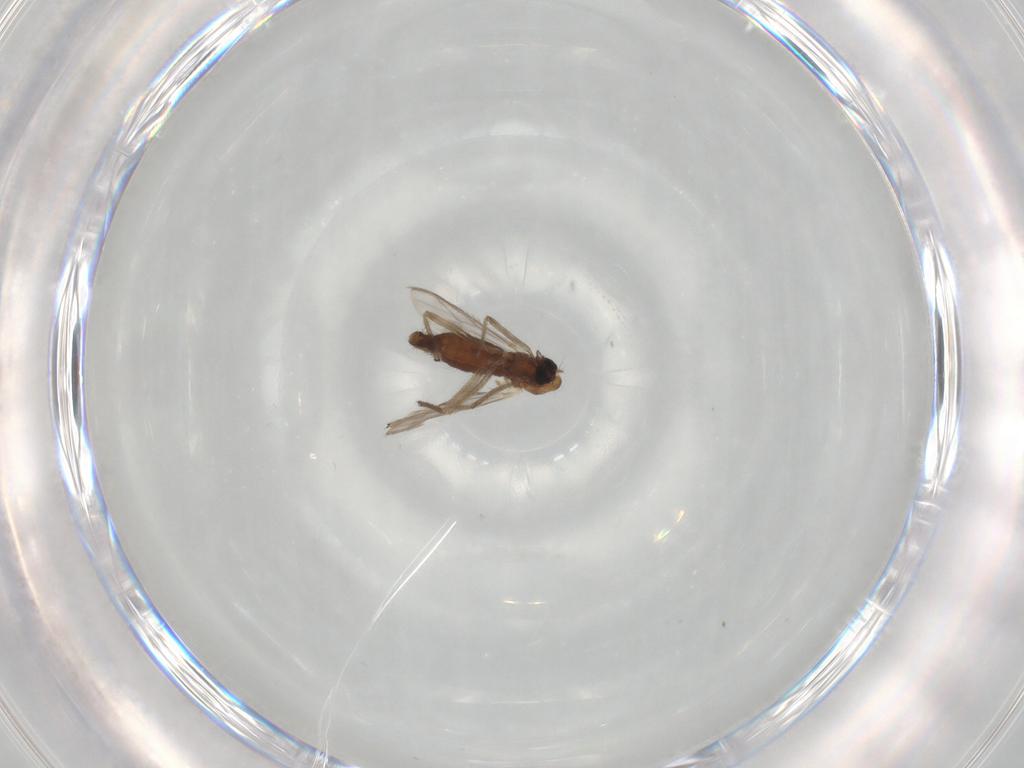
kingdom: Animalia
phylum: Arthropoda
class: Insecta
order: Diptera
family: Chironomidae
